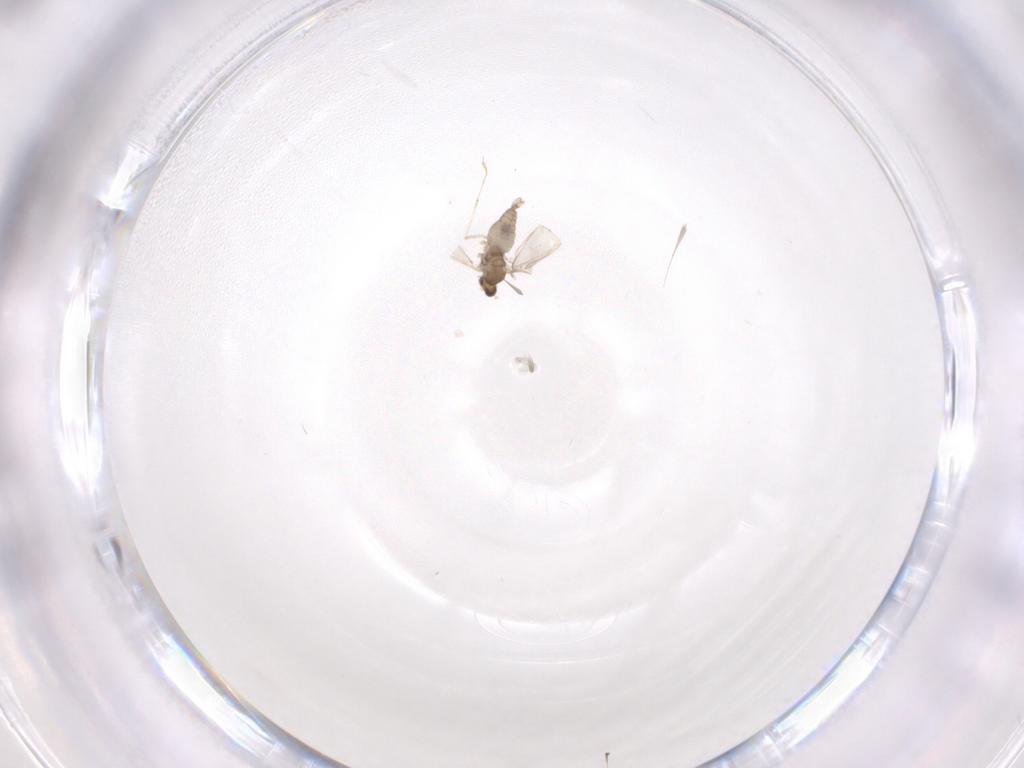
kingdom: Animalia
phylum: Arthropoda
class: Insecta
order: Diptera
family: Cecidomyiidae
